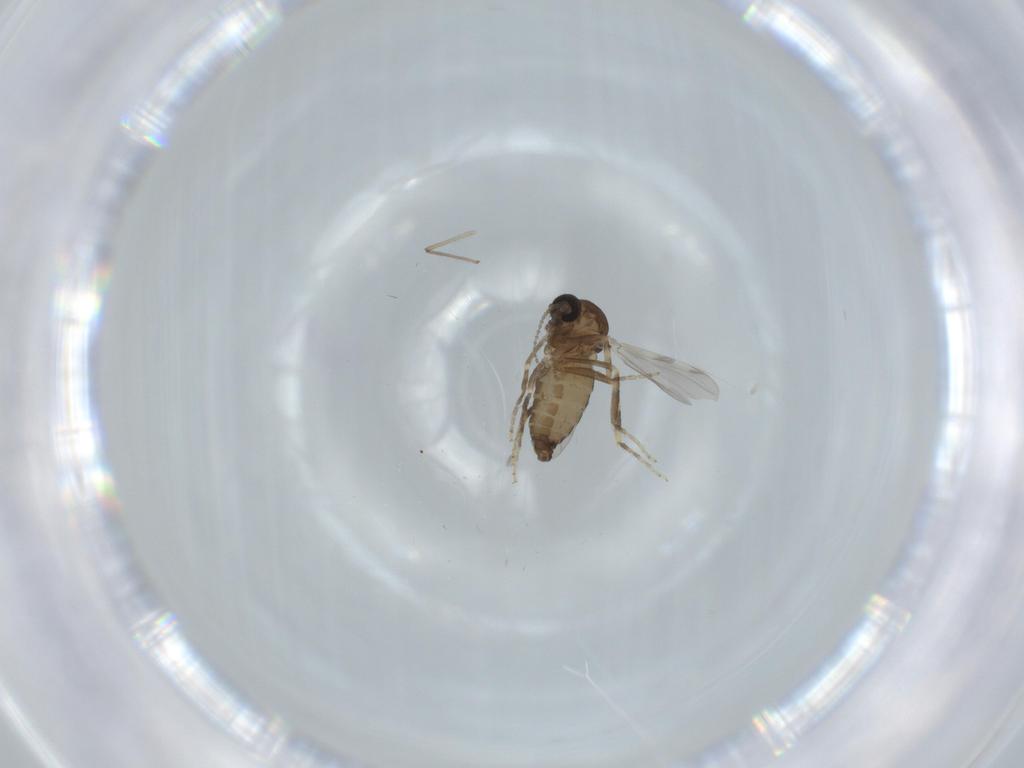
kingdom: Animalia
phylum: Arthropoda
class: Insecta
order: Diptera
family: Ceratopogonidae
